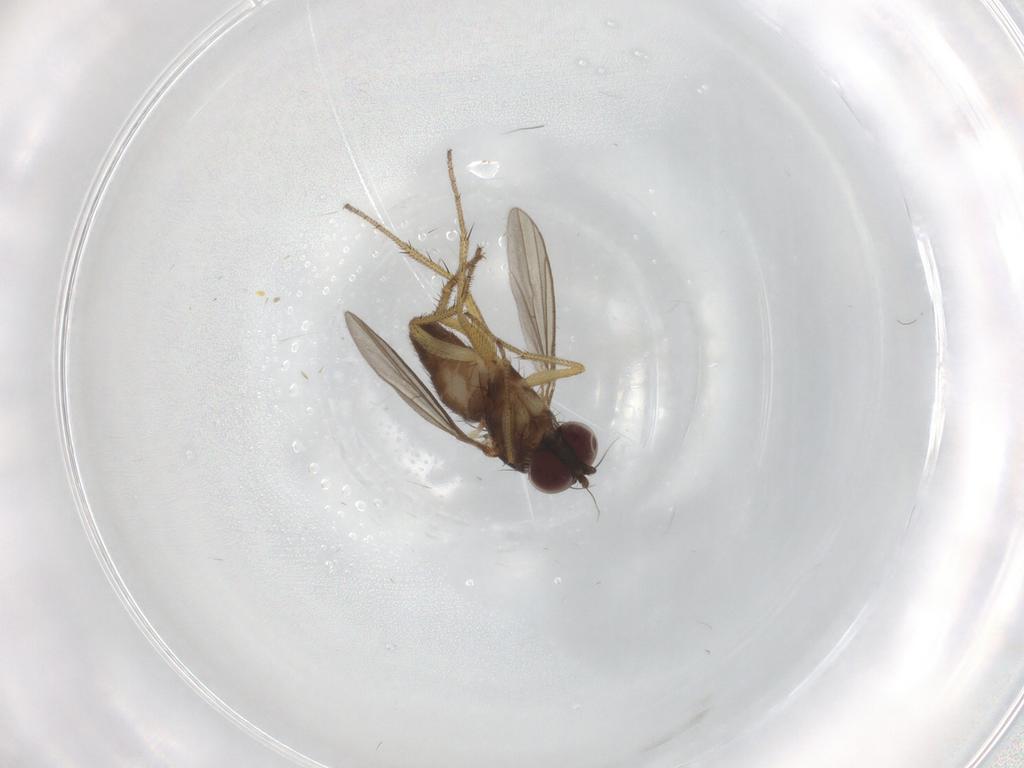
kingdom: Animalia
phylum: Arthropoda
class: Insecta
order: Diptera
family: Dolichopodidae
